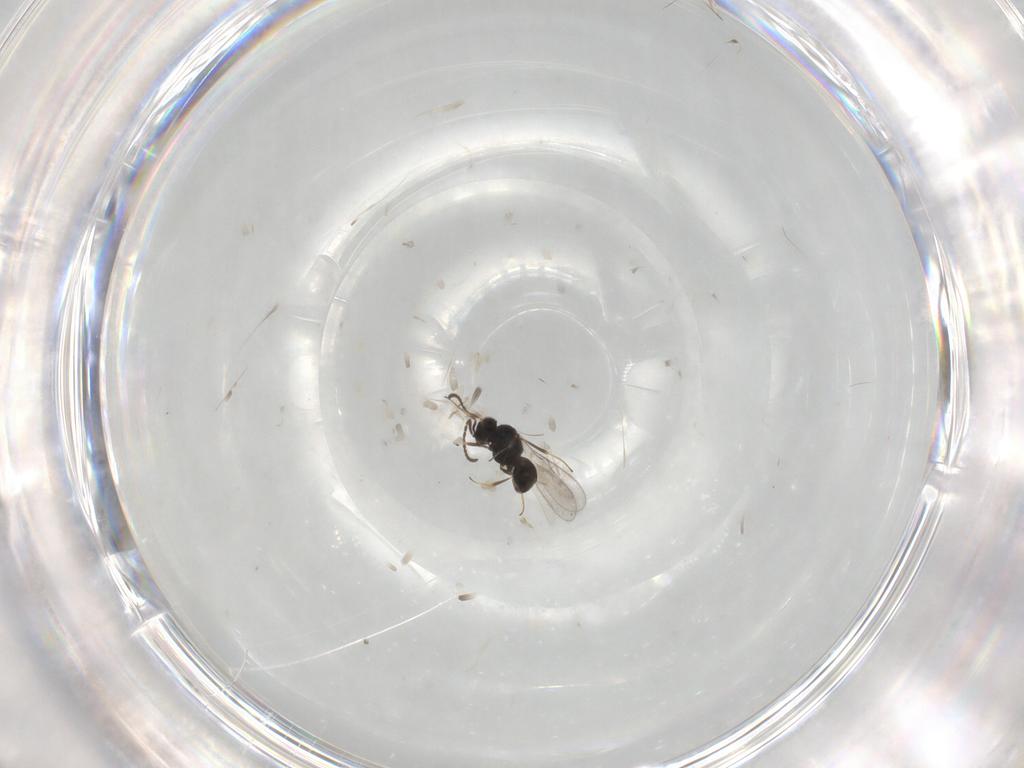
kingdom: Animalia
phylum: Arthropoda
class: Insecta
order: Hymenoptera
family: Scelionidae
